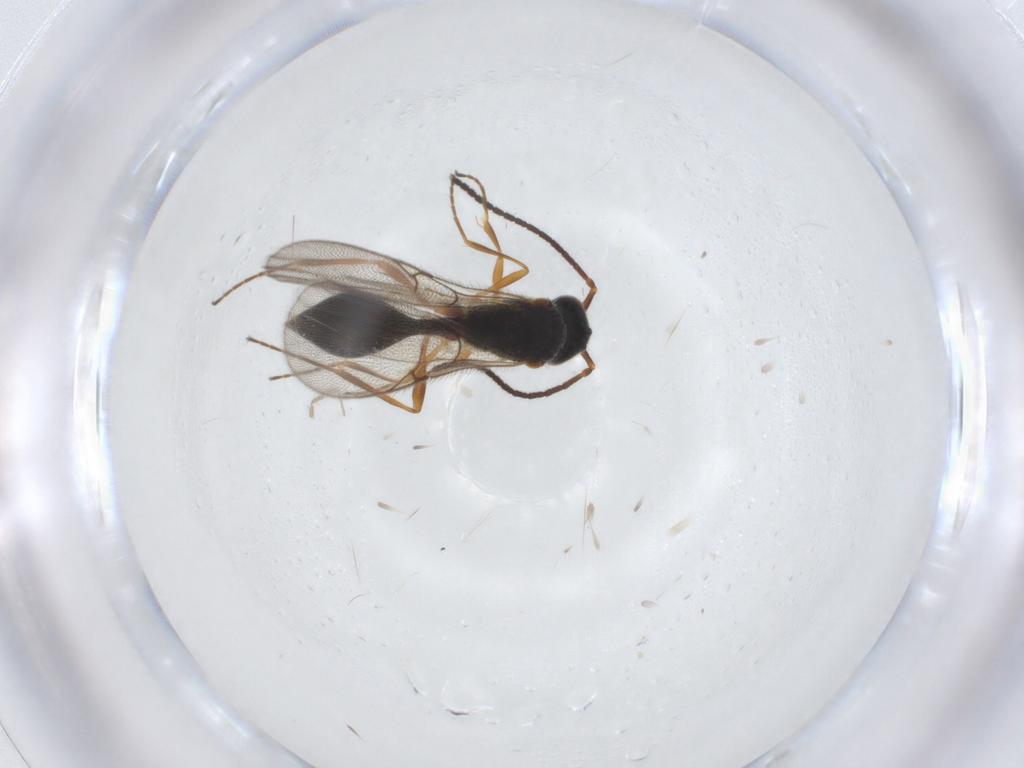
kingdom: Animalia
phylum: Arthropoda
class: Insecta
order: Hymenoptera
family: Diapriidae
